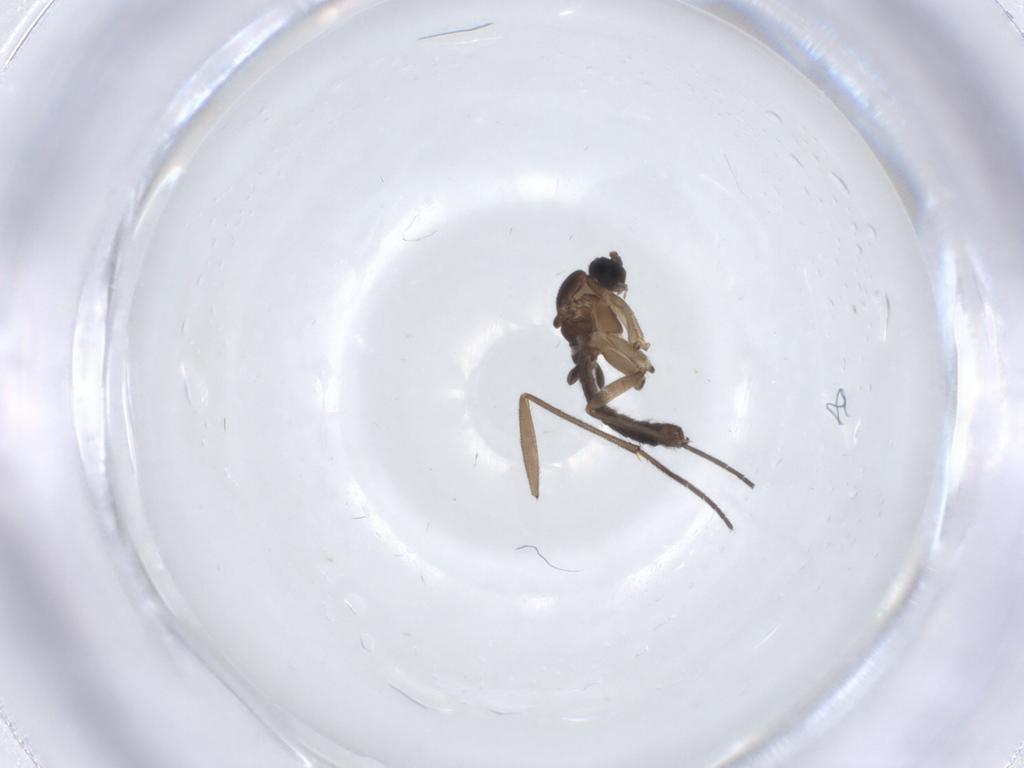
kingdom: Animalia
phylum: Arthropoda
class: Insecta
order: Diptera
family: Sciaridae
